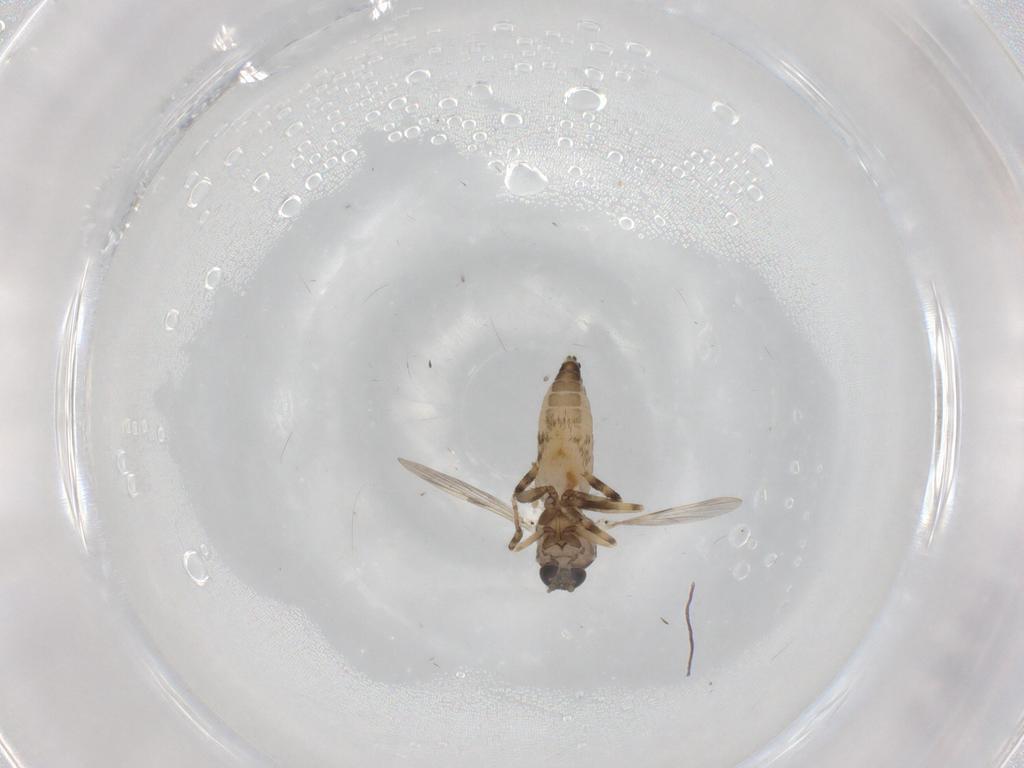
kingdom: Animalia
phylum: Arthropoda
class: Insecta
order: Diptera
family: Ceratopogonidae
